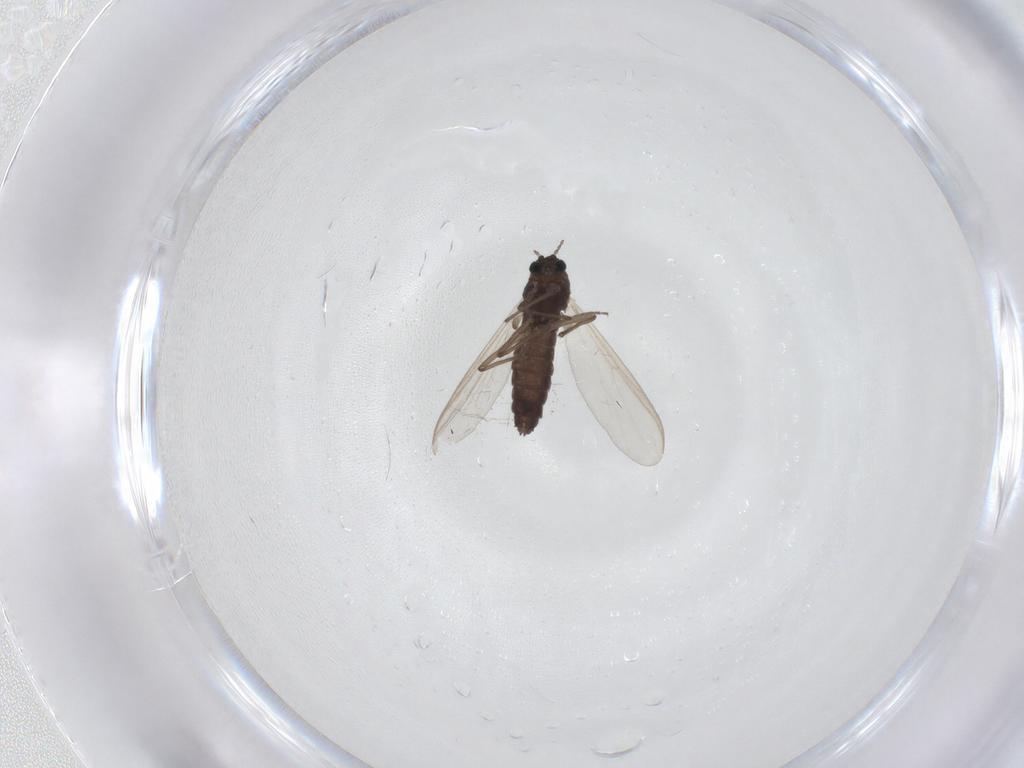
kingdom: Animalia
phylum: Arthropoda
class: Insecta
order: Diptera
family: Chironomidae
